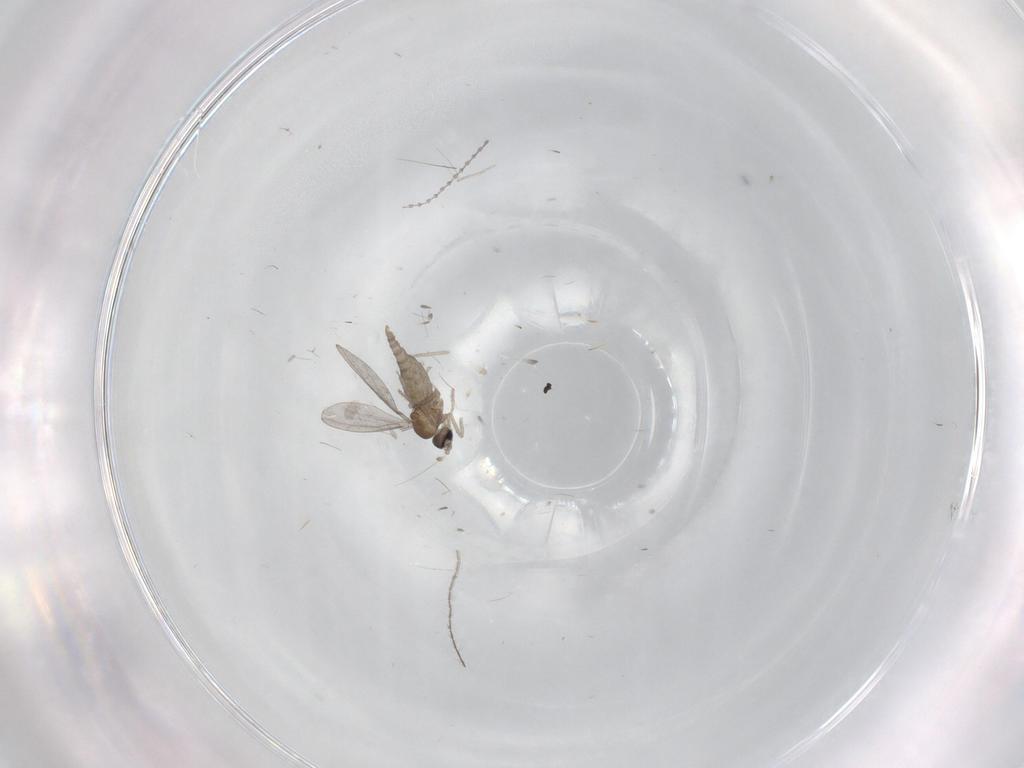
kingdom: Animalia
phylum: Arthropoda
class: Insecta
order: Diptera
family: Cecidomyiidae
